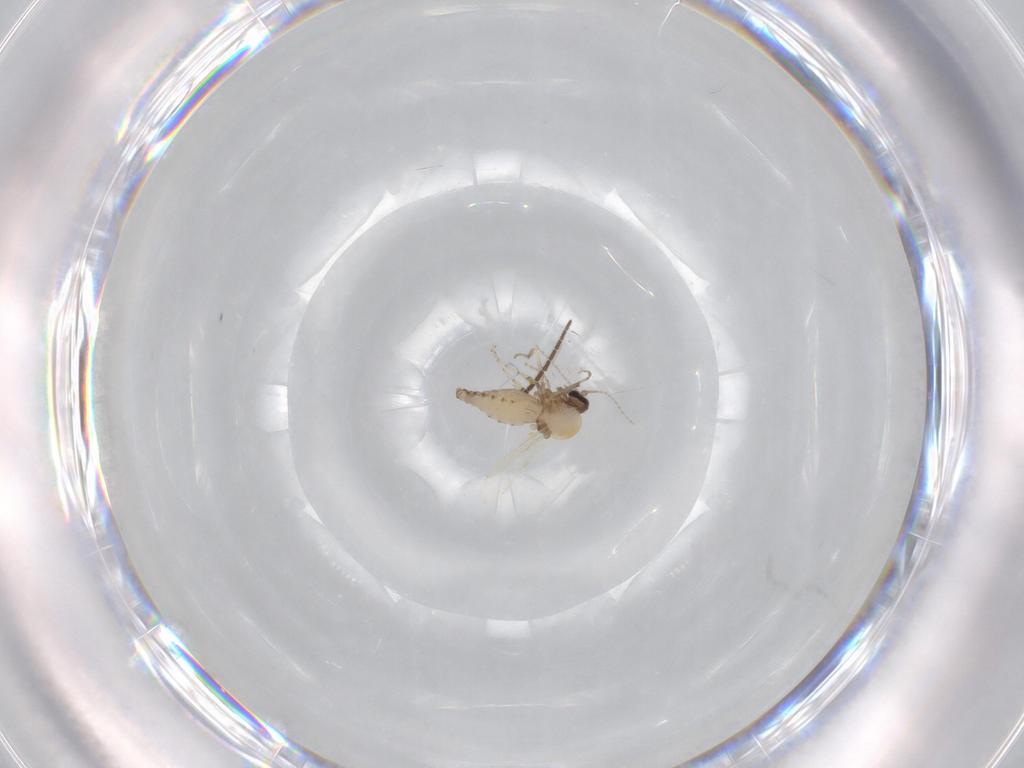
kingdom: Animalia
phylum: Arthropoda
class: Insecta
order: Diptera
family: Ceratopogonidae
